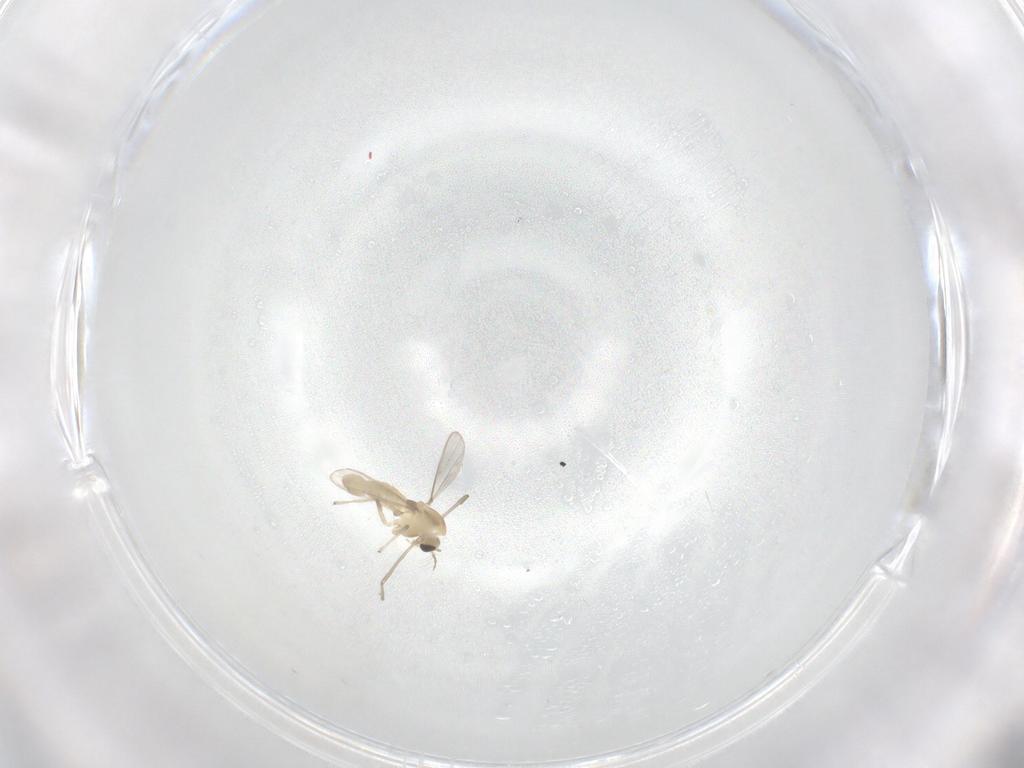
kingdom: Animalia
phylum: Arthropoda
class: Insecta
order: Diptera
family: Chironomidae
